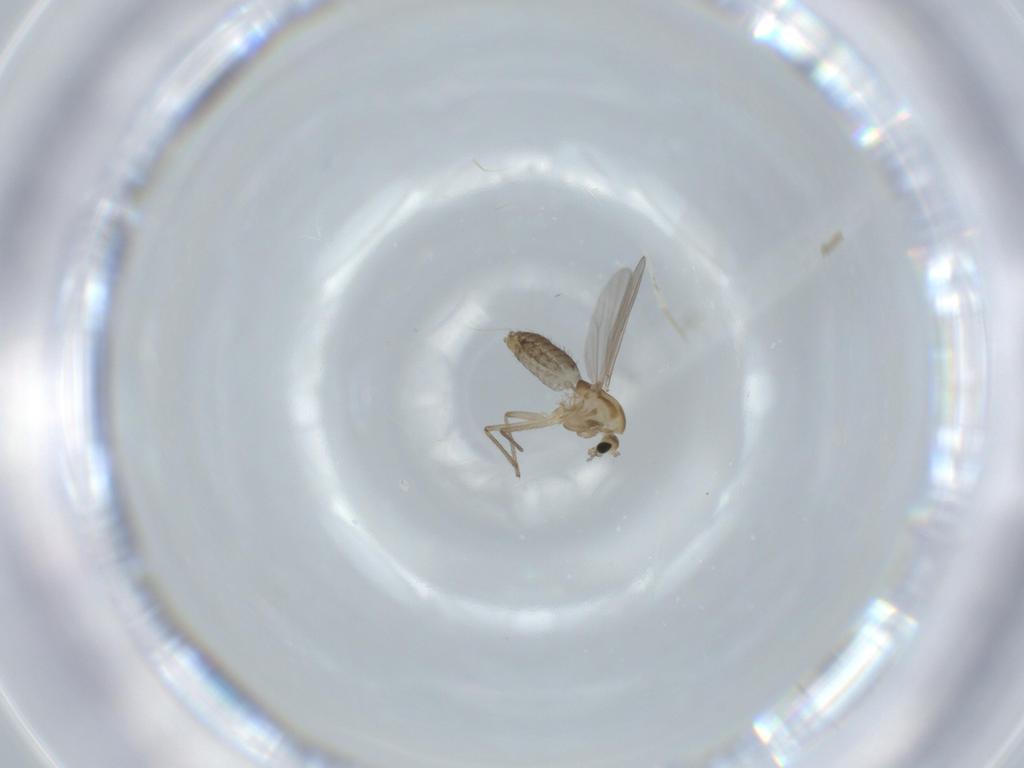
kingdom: Animalia
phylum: Arthropoda
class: Insecta
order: Diptera
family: Chironomidae
